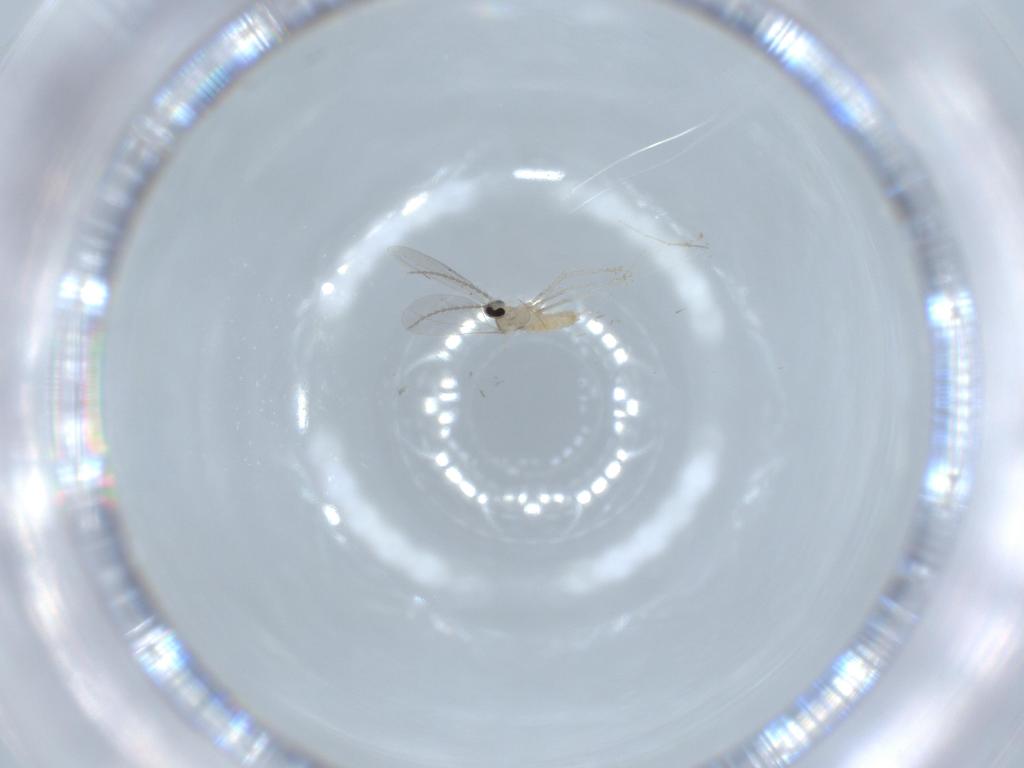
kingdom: Animalia
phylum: Arthropoda
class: Insecta
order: Diptera
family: Cecidomyiidae
